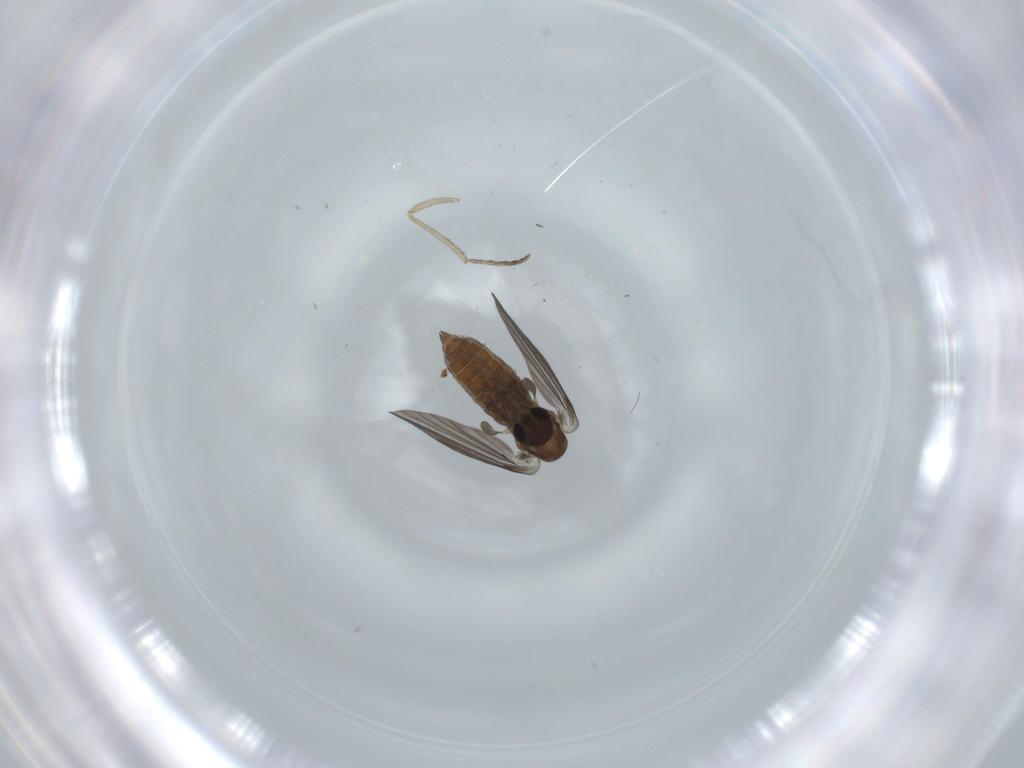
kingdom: Animalia
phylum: Arthropoda
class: Insecta
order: Diptera
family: Psychodidae
